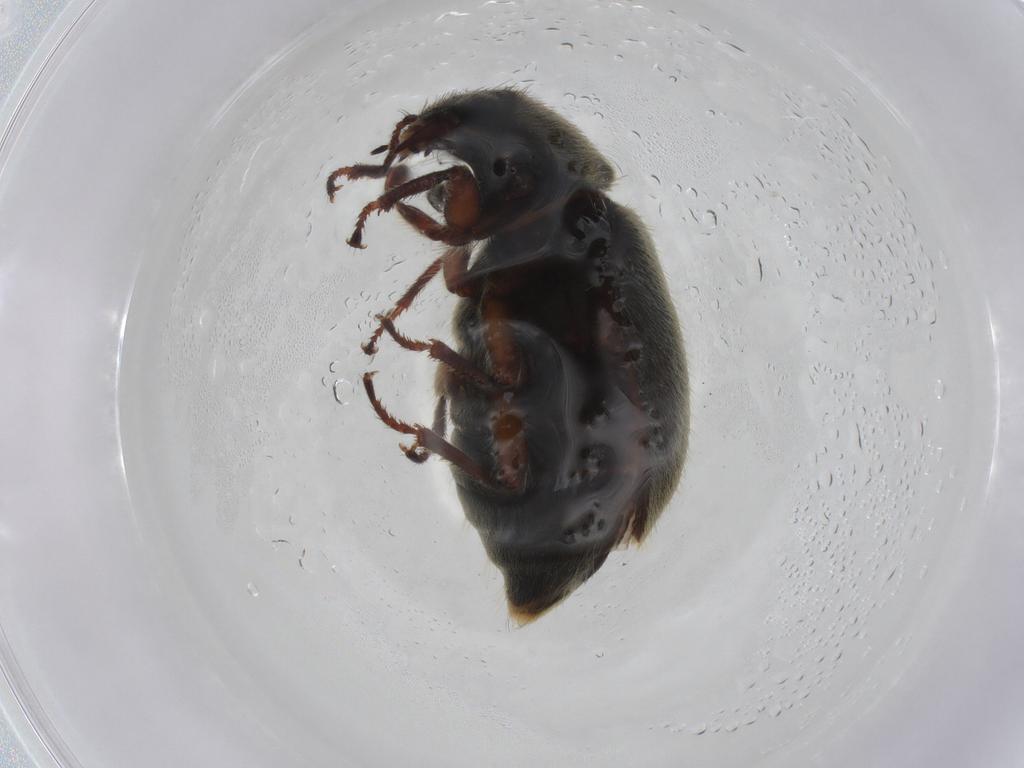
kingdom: Animalia
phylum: Arthropoda
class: Insecta
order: Coleoptera
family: Melyridae
